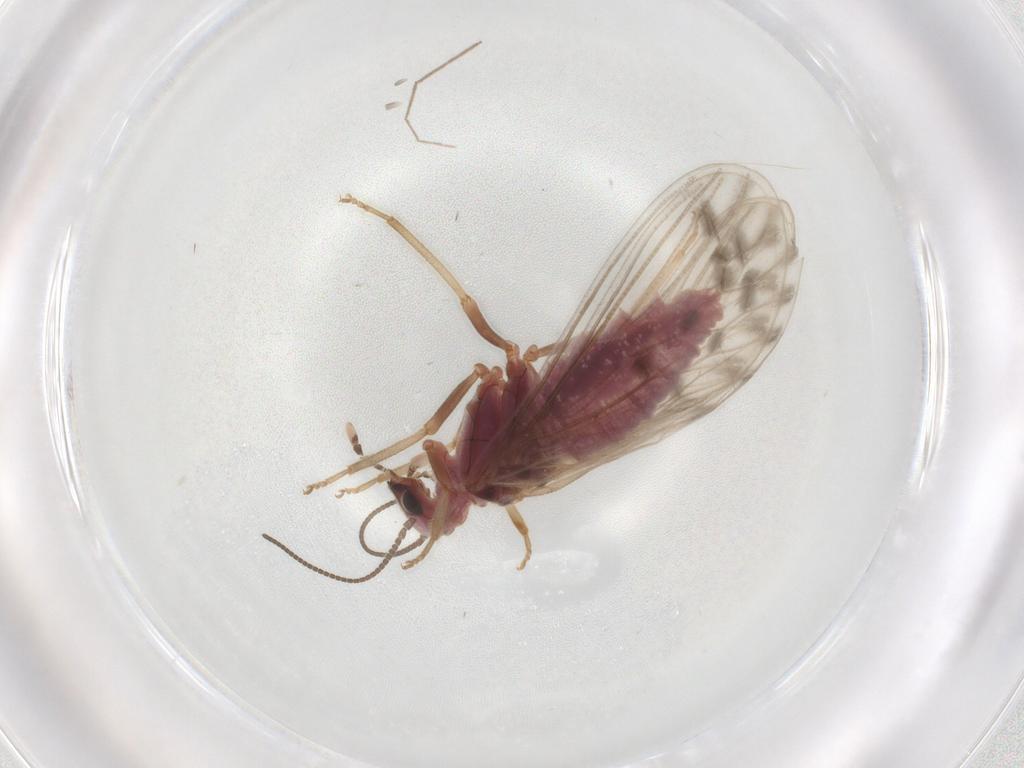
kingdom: Animalia
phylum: Arthropoda
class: Insecta
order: Neuroptera
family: Coniopterygidae
